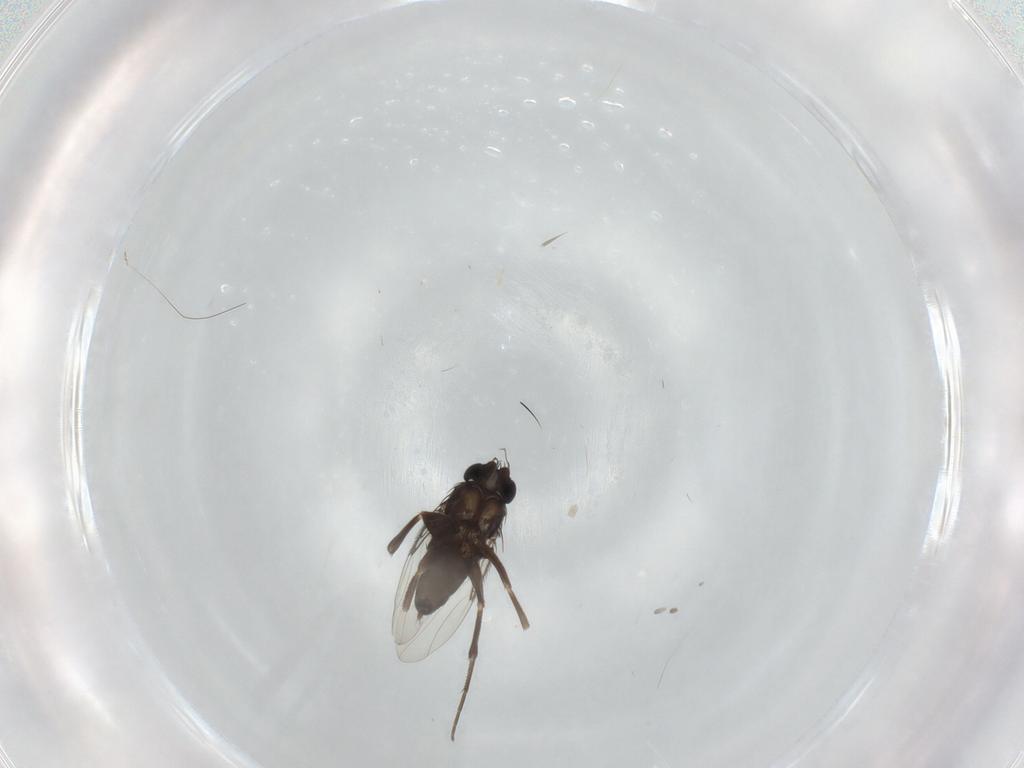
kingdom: Animalia
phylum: Arthropoda
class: Insecta
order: Diptera
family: Phoridae
